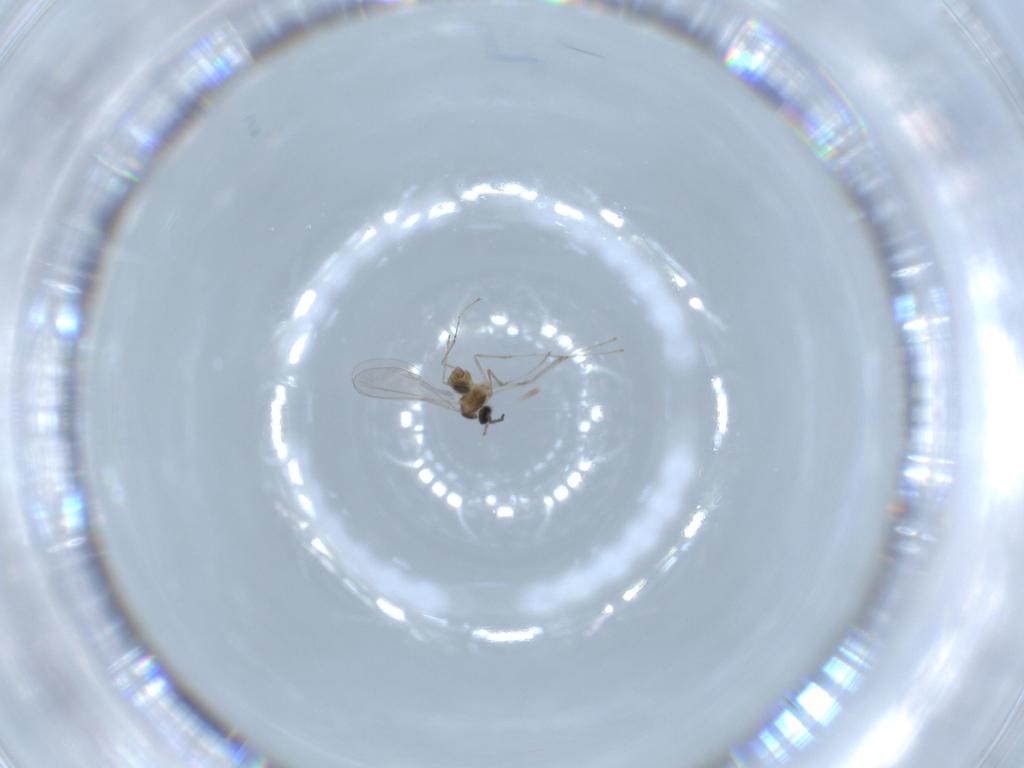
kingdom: Animalia
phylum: Arthropoda
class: Insecta
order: Diptera
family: Cecidomyiidae
